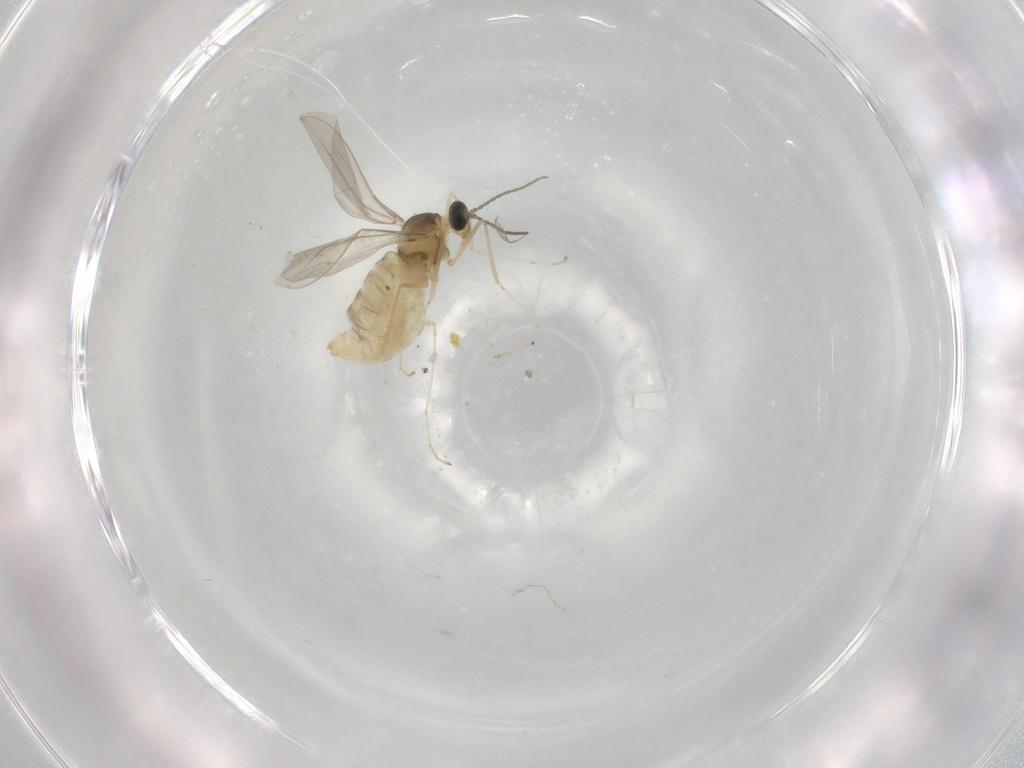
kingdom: Animalia
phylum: Arthropoda
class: Insecta
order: Diptera
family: Cecidomyiidae
